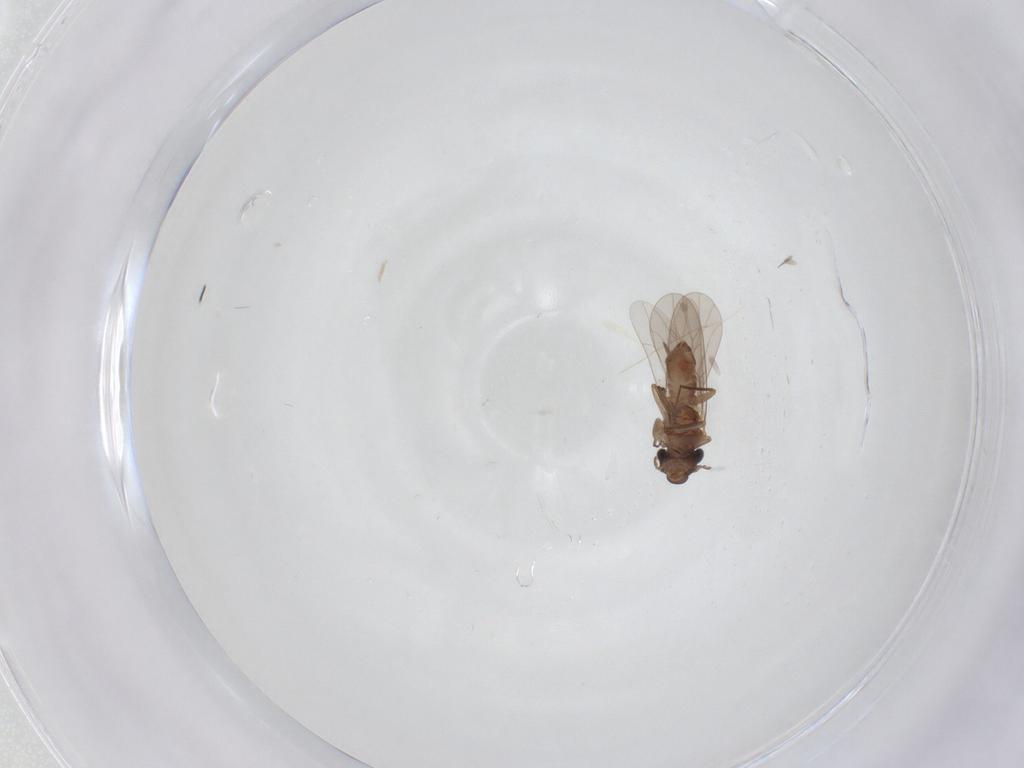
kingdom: Animalia
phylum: Arthropoda
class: Insecta
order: Psocodea
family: Lepidopsocidae
